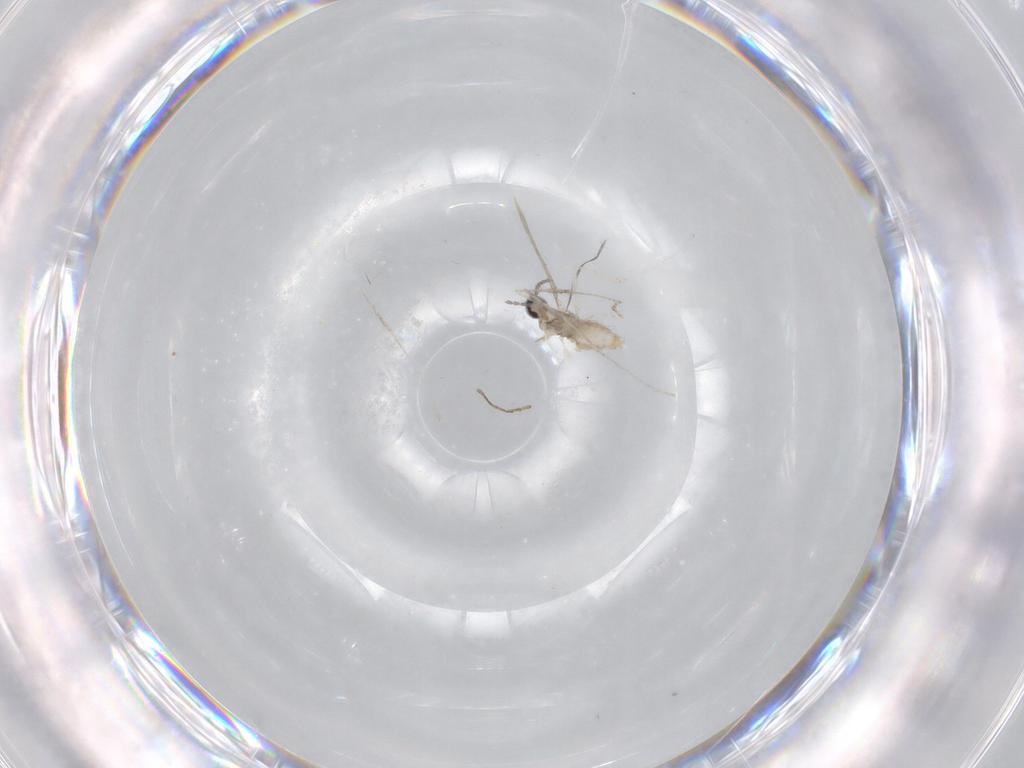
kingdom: Animalia
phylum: Arthropoda
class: Insecta
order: Diptera
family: Cecidomyiidae
